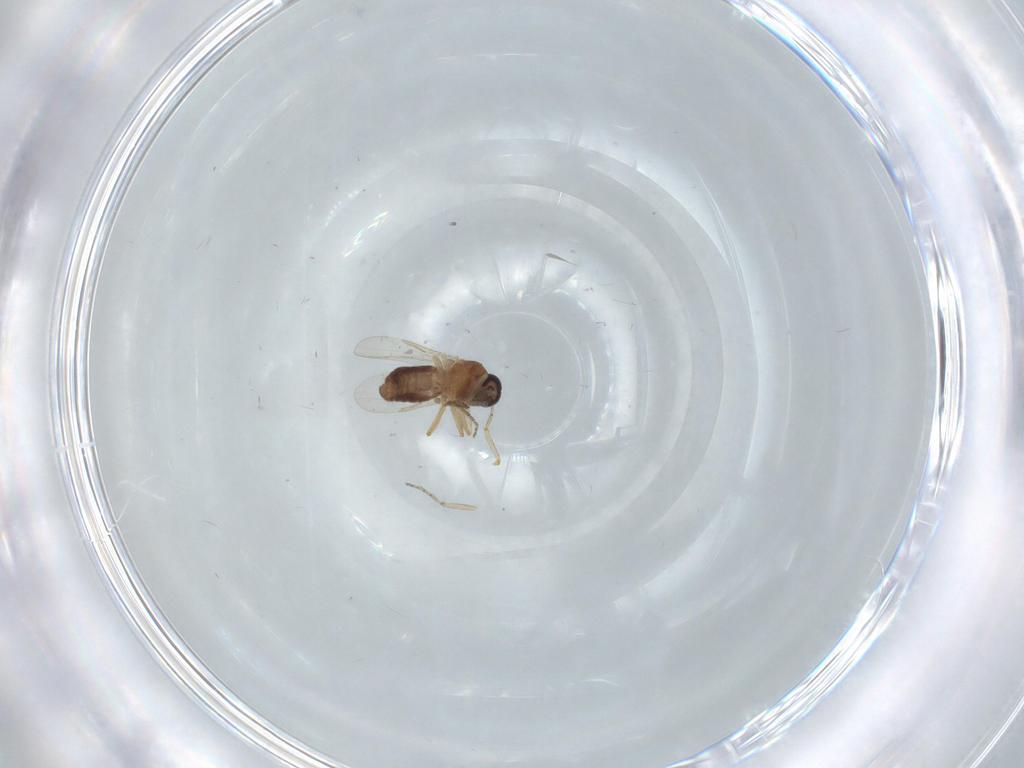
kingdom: Animalia
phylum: Arthropoda
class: Insecta
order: Diptera
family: Ceratopogonidae
